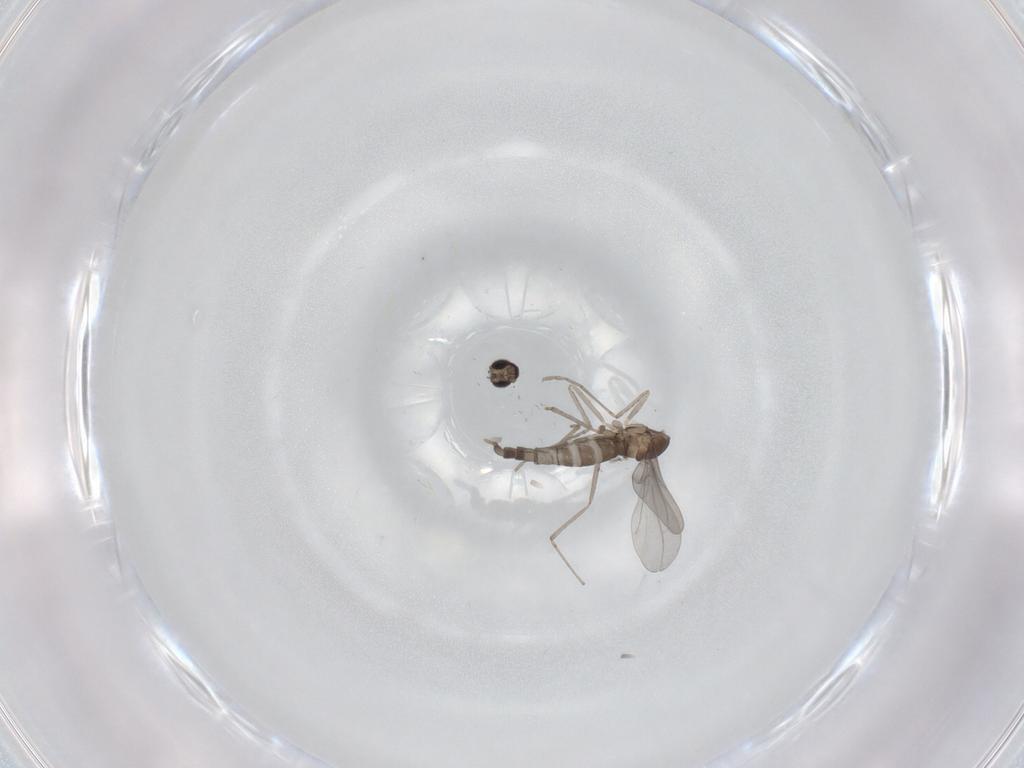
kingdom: Animalia
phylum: Arthropoda
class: Insecta
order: Diptera
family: Cecidomyiidae
